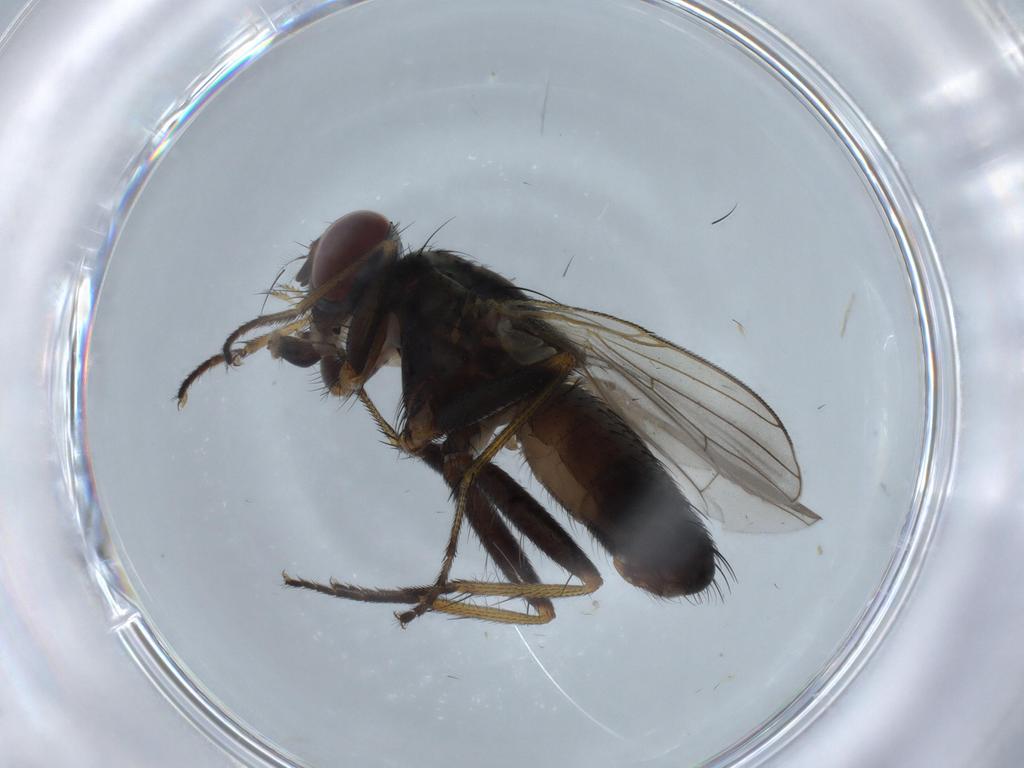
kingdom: Animalia
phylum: Arthropoda
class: Insecta
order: Diptera
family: Muscidae
